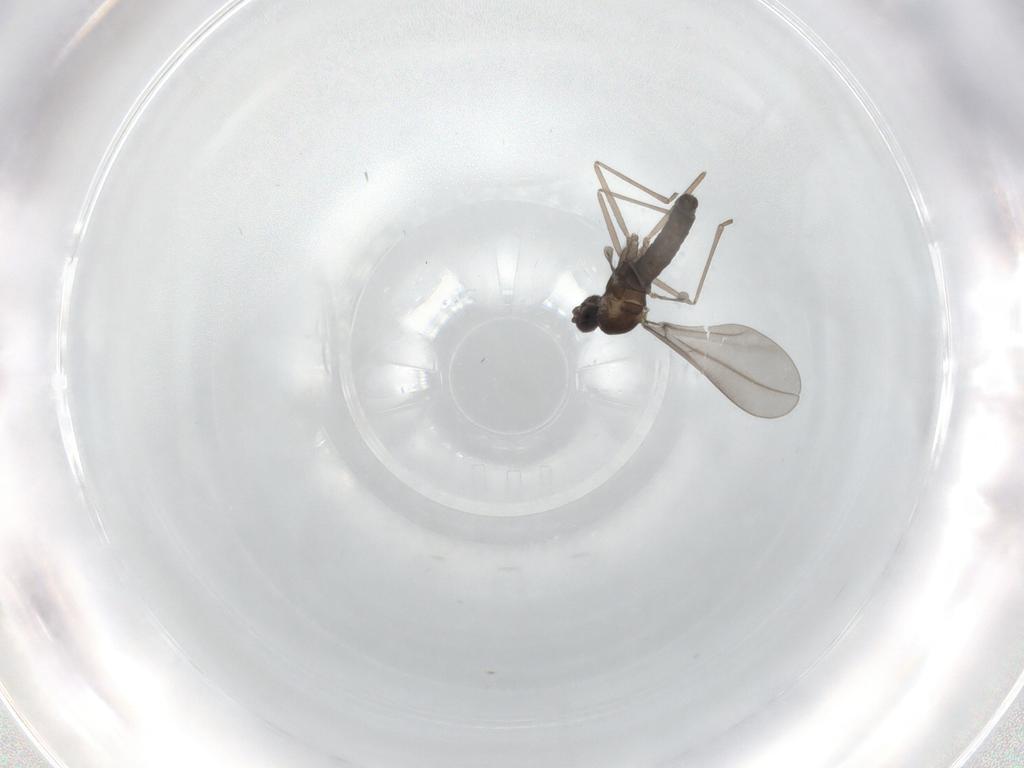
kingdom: Animalia
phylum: Arthropoda
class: Insecta
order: Diptera
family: Cecidomyiidae
